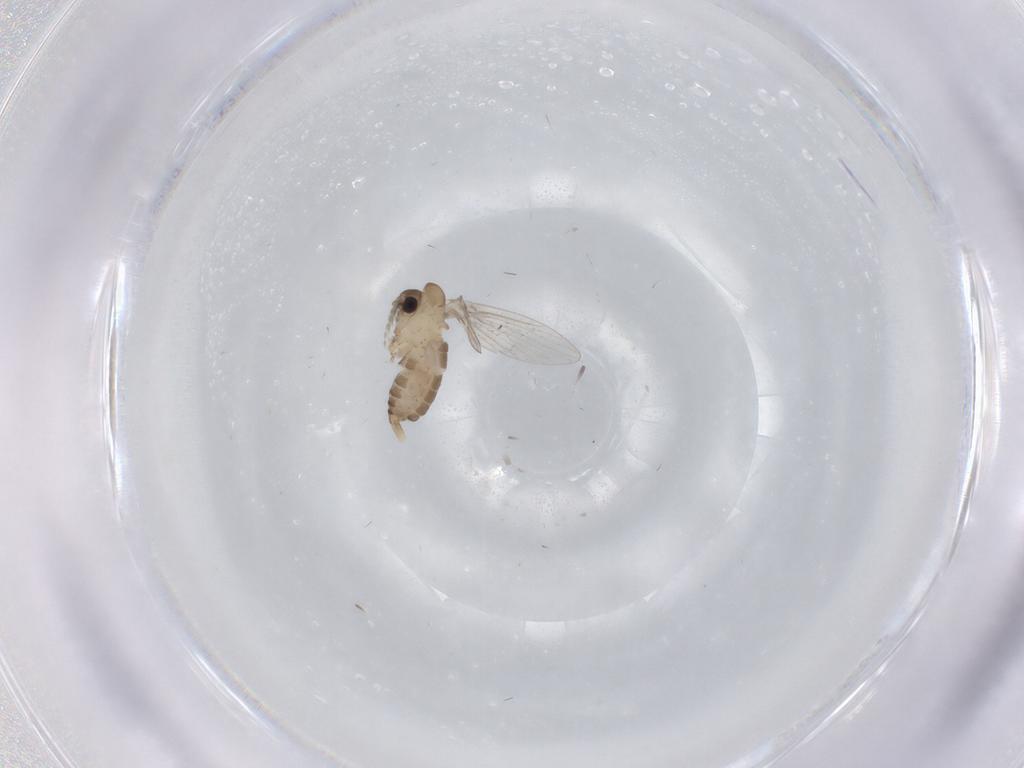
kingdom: Animalia
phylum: Arthropoda
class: Insecta
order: Diptera
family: Psychodidae
